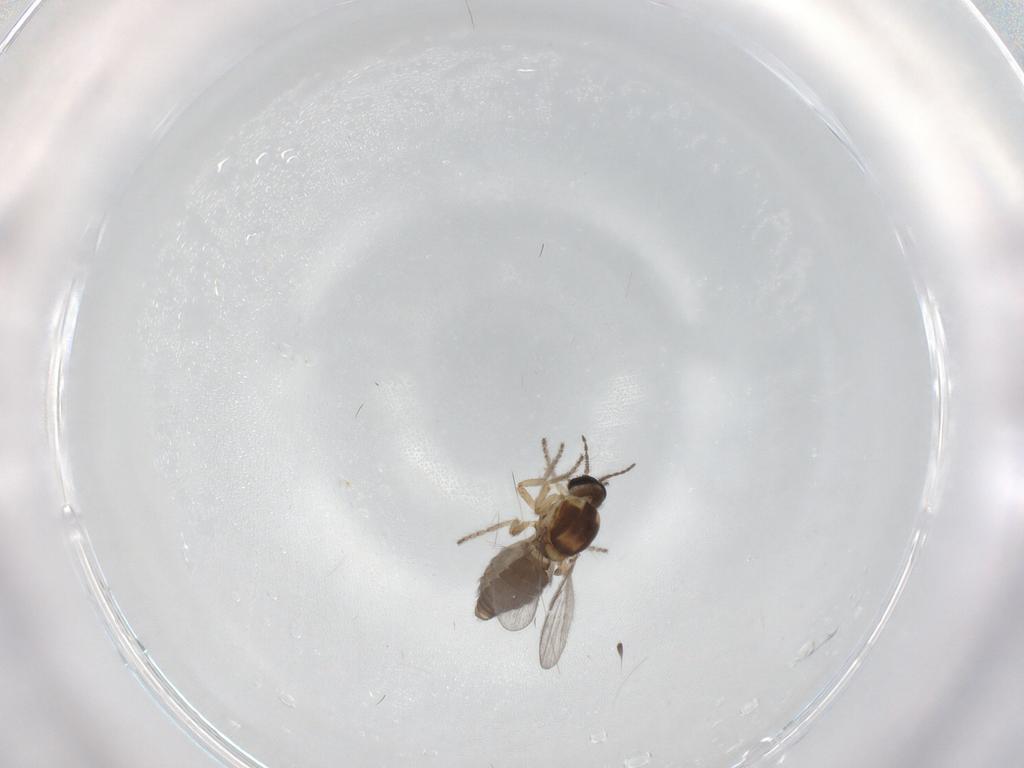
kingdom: Animalia
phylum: Arthropoda
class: Insecta
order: Diptera
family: Ceratopogonidae
